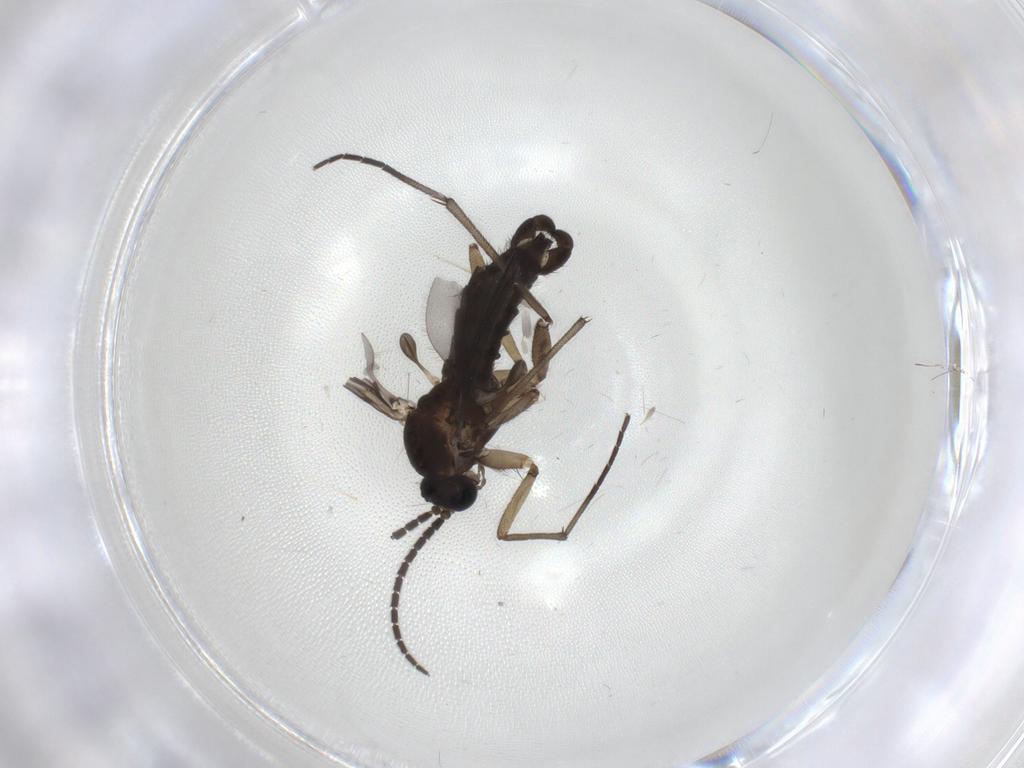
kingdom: Animalia
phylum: Arthropoda
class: Insecta
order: Diptera
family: Sciaridae
